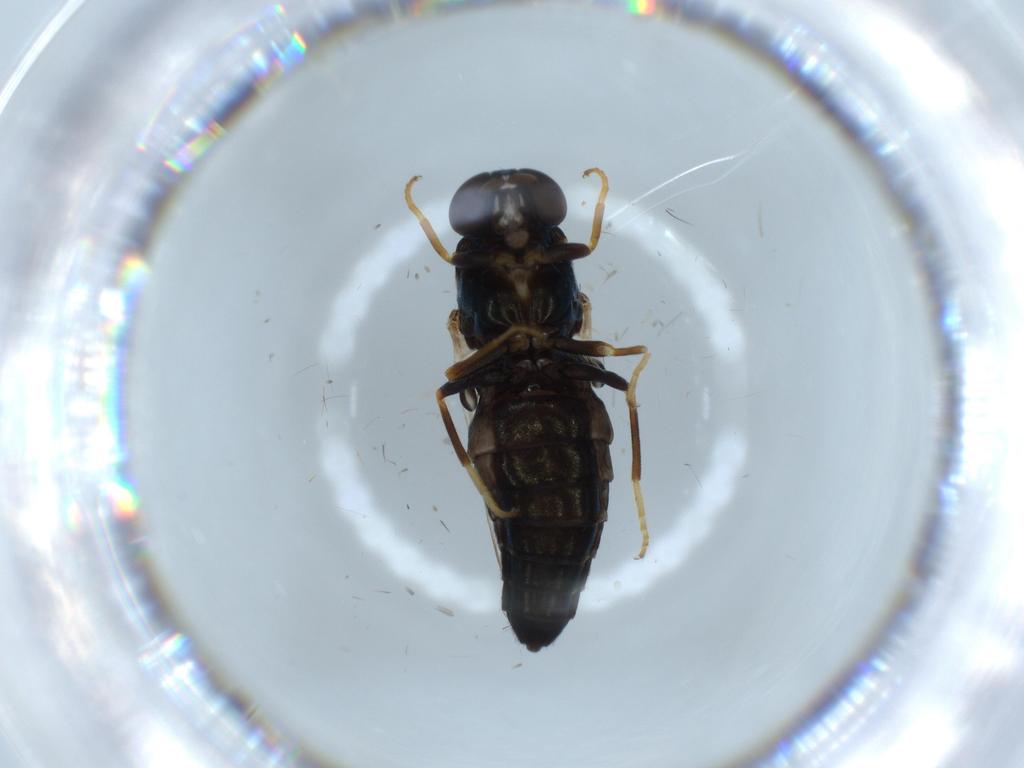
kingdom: Animalia
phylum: Arthropoda
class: Insecta
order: Diptera
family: Scenopinidae
